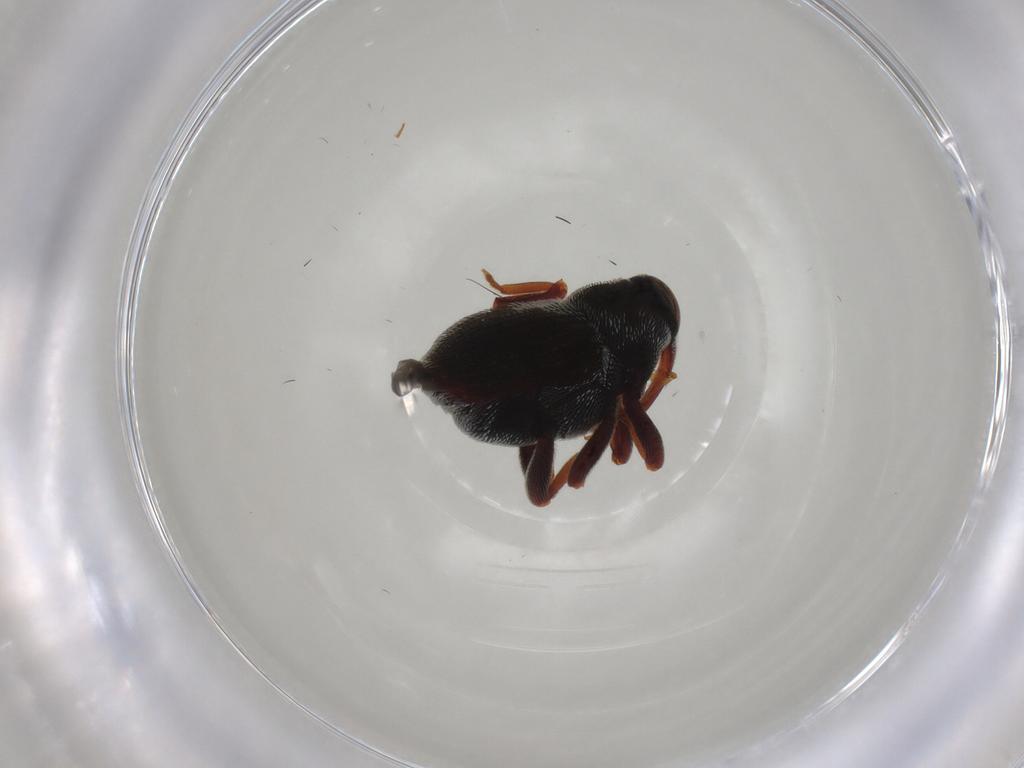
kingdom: Animalia
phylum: Arthropoda
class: Insecta
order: Coleoptera
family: Curculionidae
